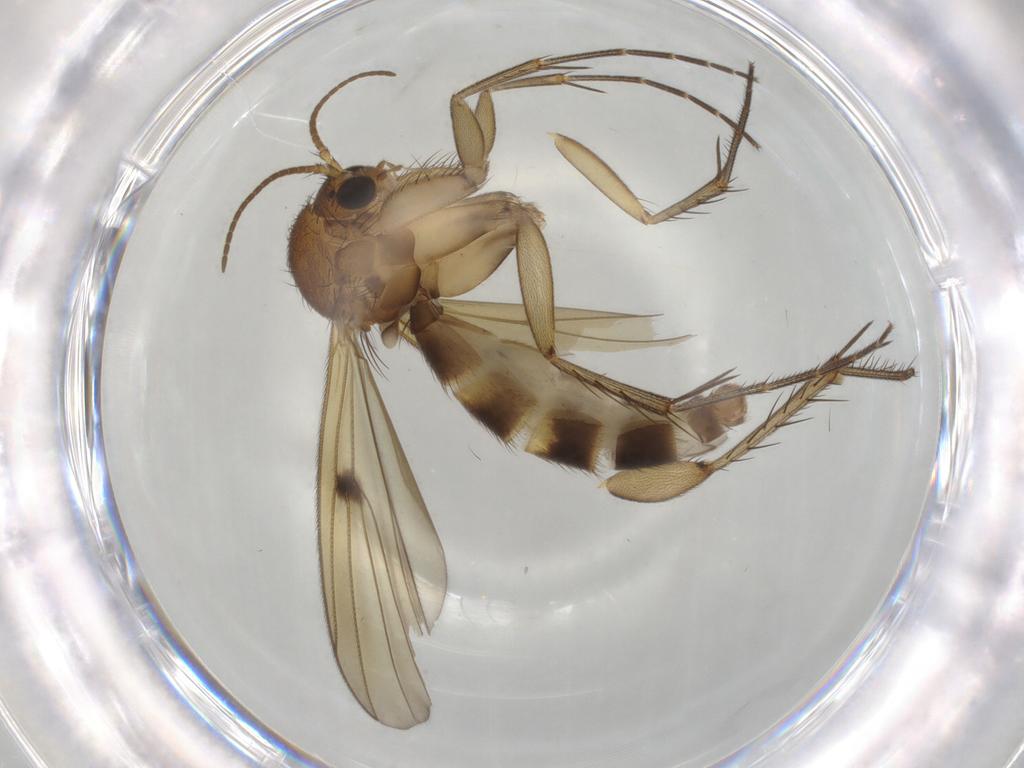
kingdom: Animalia
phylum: Arthropoda
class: Insecta
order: Diptera
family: Mycetophilidae
